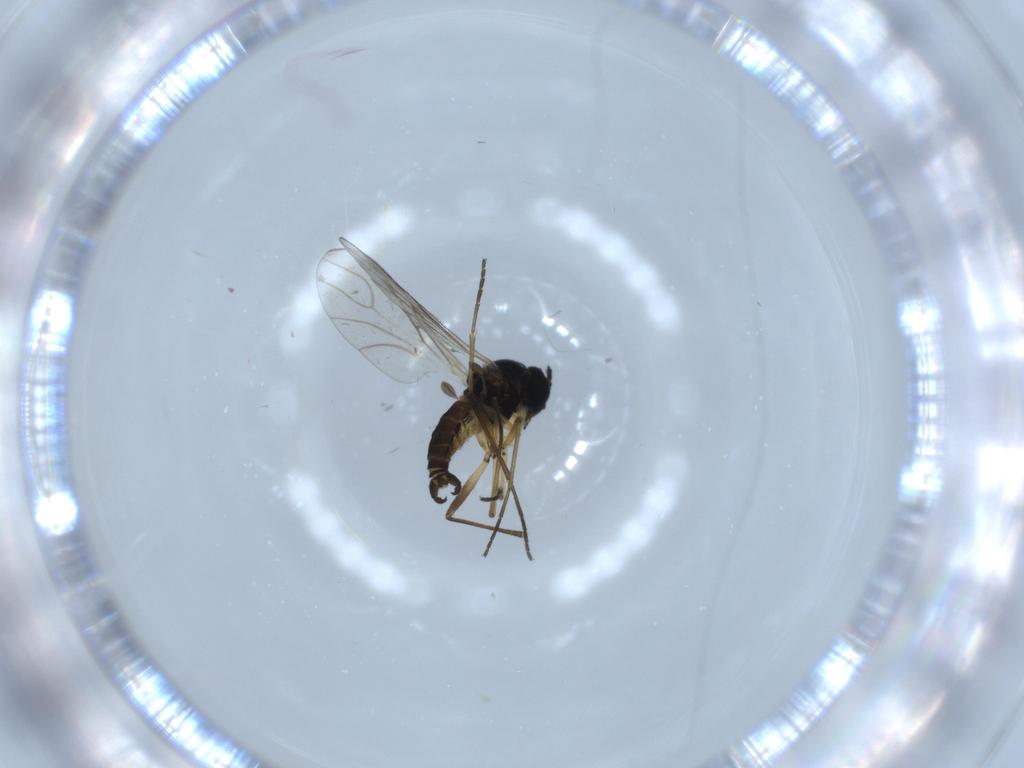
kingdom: Animalia
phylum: Arthropoda
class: Insecta
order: Diptera
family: Sciaridae
